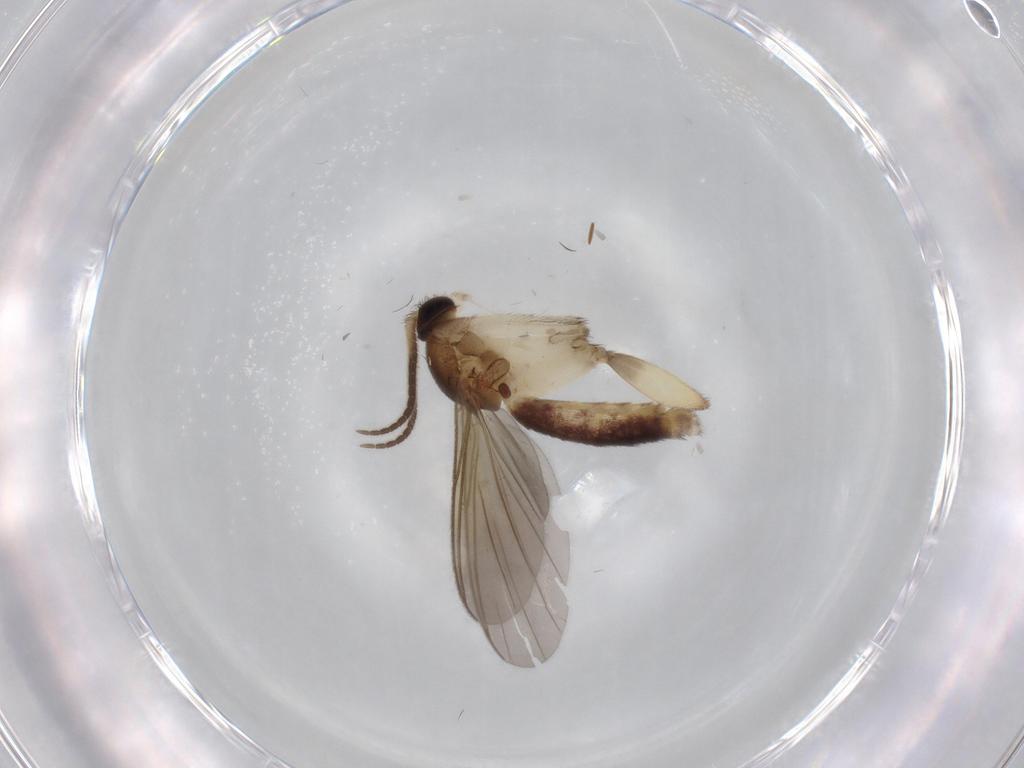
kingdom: Animalia
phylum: Arthropoda
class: Insecta
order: Diptera
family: Mycetophilidae
